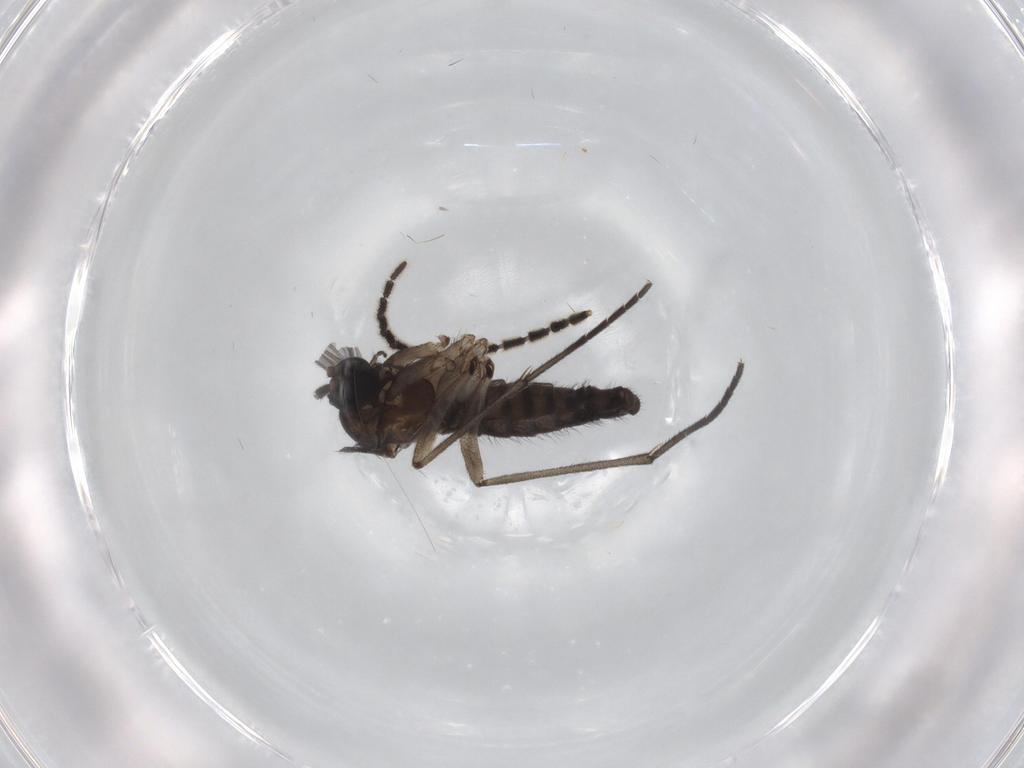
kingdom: Animalia
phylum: Arthropoda
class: Insecta
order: Diptera
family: Sciaridae
